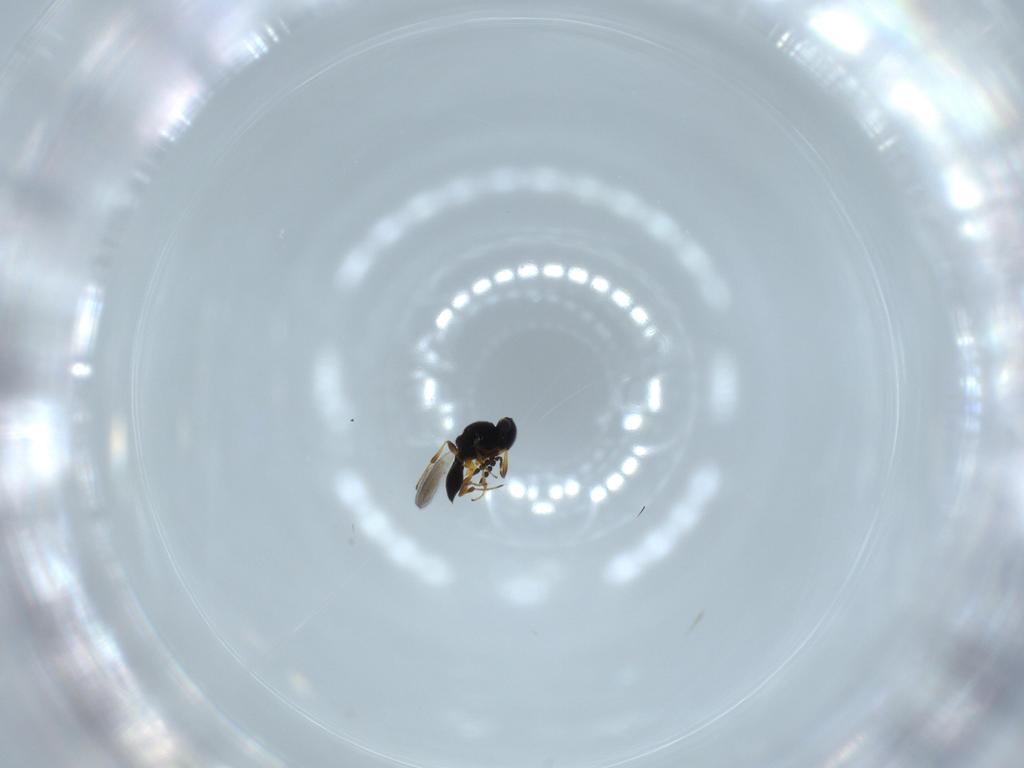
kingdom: Animalia
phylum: Arthropoda
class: Insecta
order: Hymenoptera
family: Platygastridae
